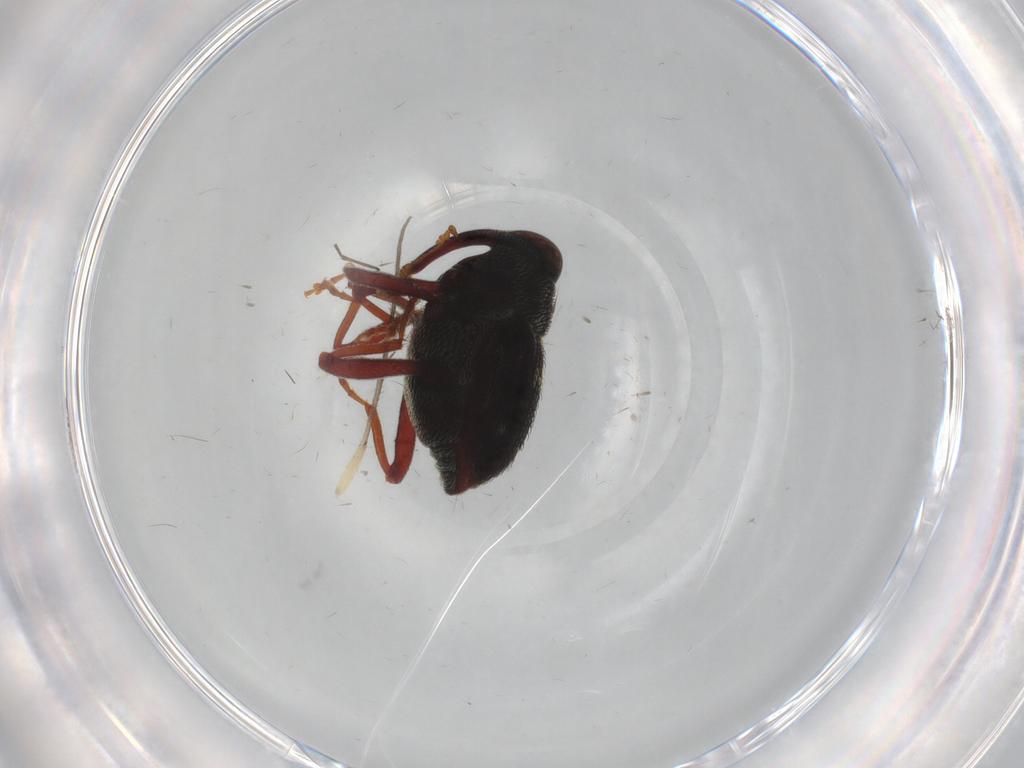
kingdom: Animalia
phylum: Arthropoda
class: Insecta
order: Coleoptera
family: Curculionidae
